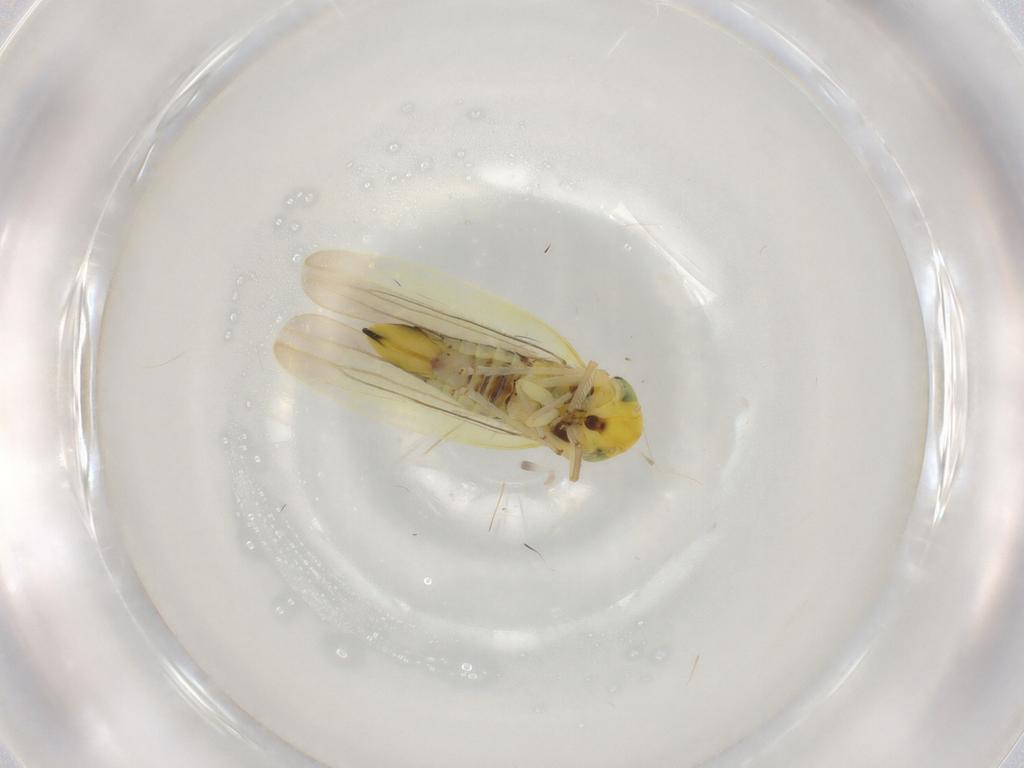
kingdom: Animalia
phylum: Arthropoda
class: Insecta
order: Hemiptera
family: Cicadellidae
